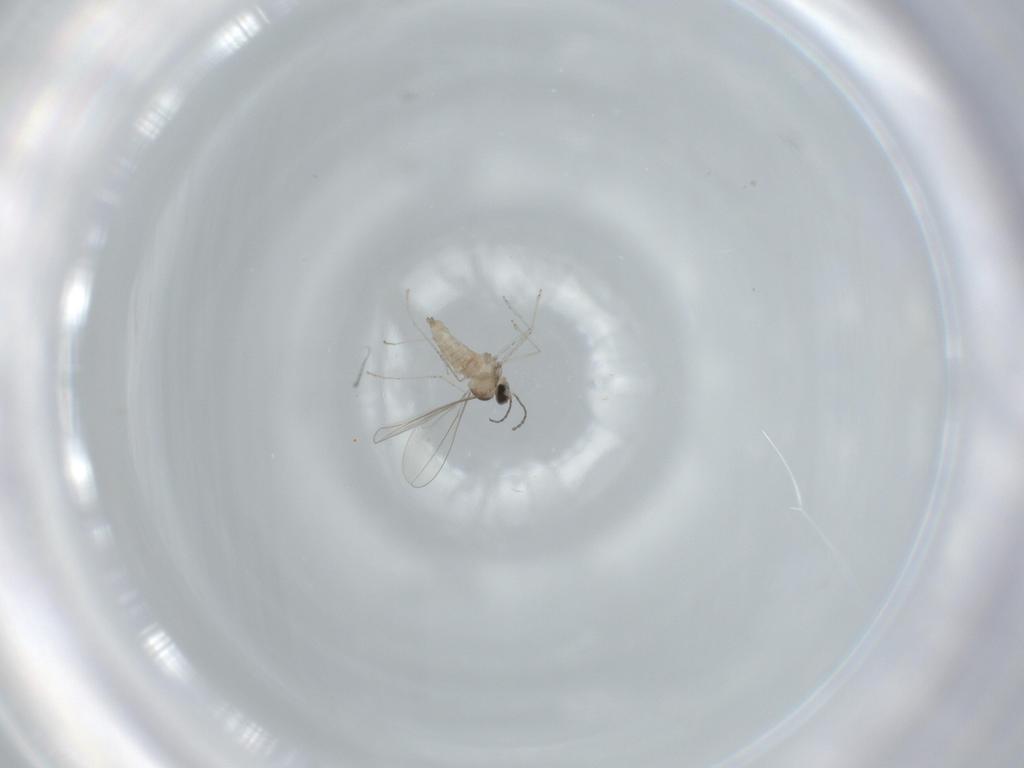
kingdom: Animalia
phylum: Arthropoda
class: Insecta
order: Diptera
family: Cecidomyiidae
